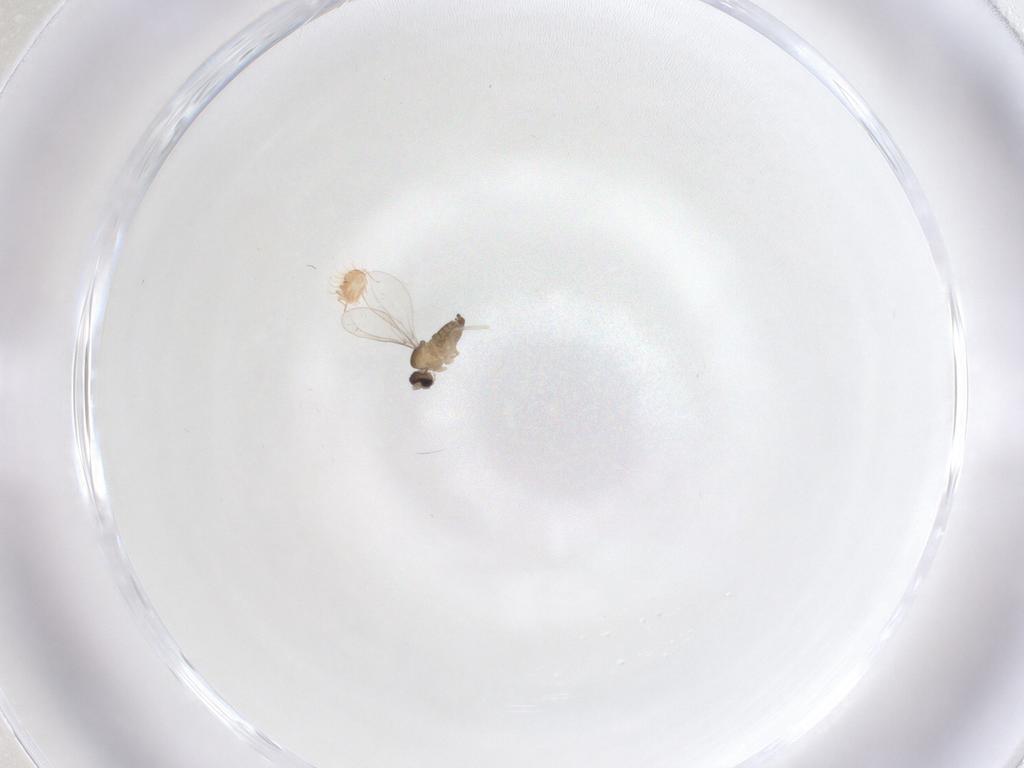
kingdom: Animalia
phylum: Arthropoda
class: Insecta
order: Diptera
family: Cecidomyiidae
